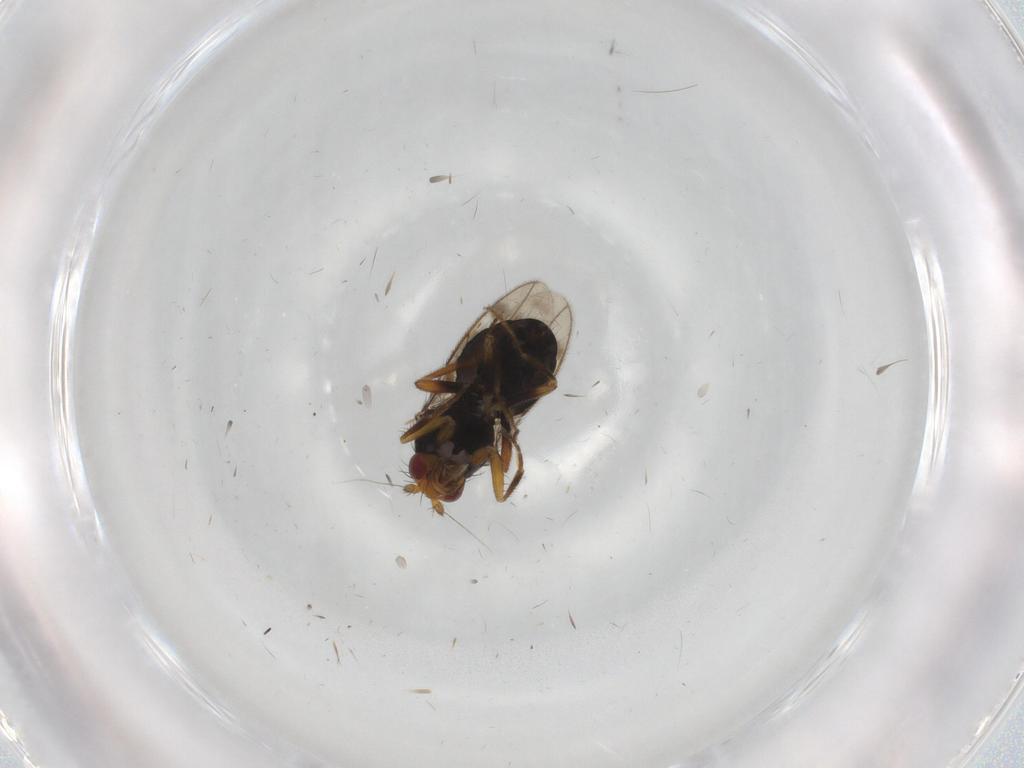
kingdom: Animalia
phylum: Arthropoda
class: Insecta
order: Diptera
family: Sphaeroceridae
